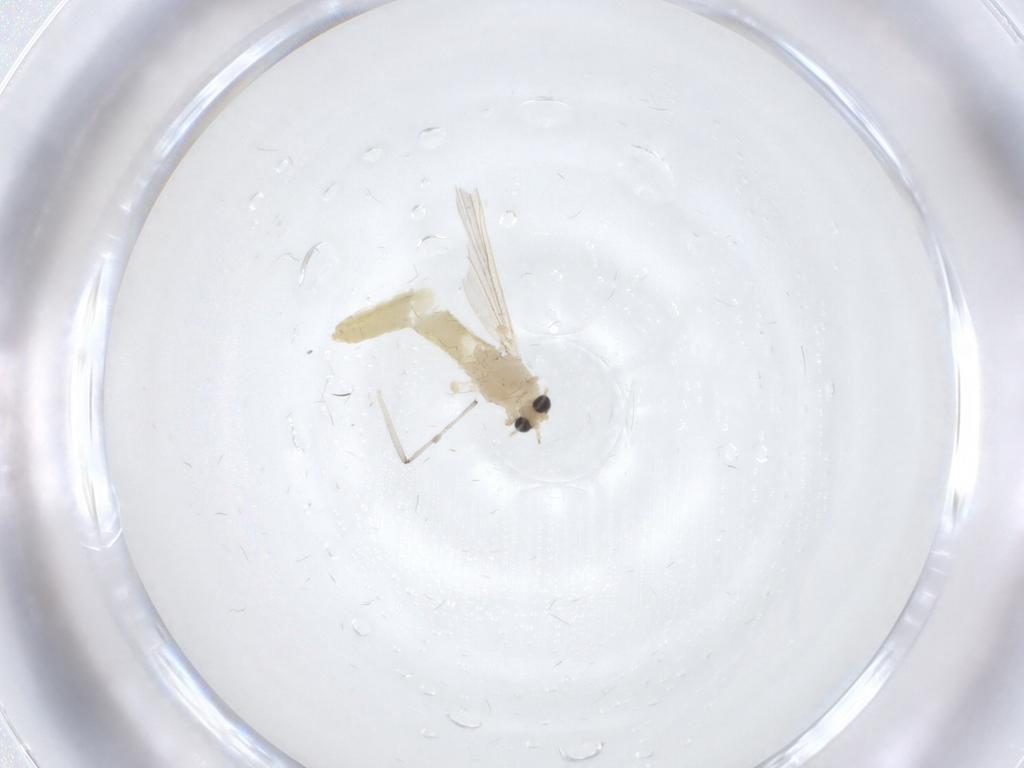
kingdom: Animalia
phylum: Arthropoda
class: Insecta
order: Diptera
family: Chironomidae
